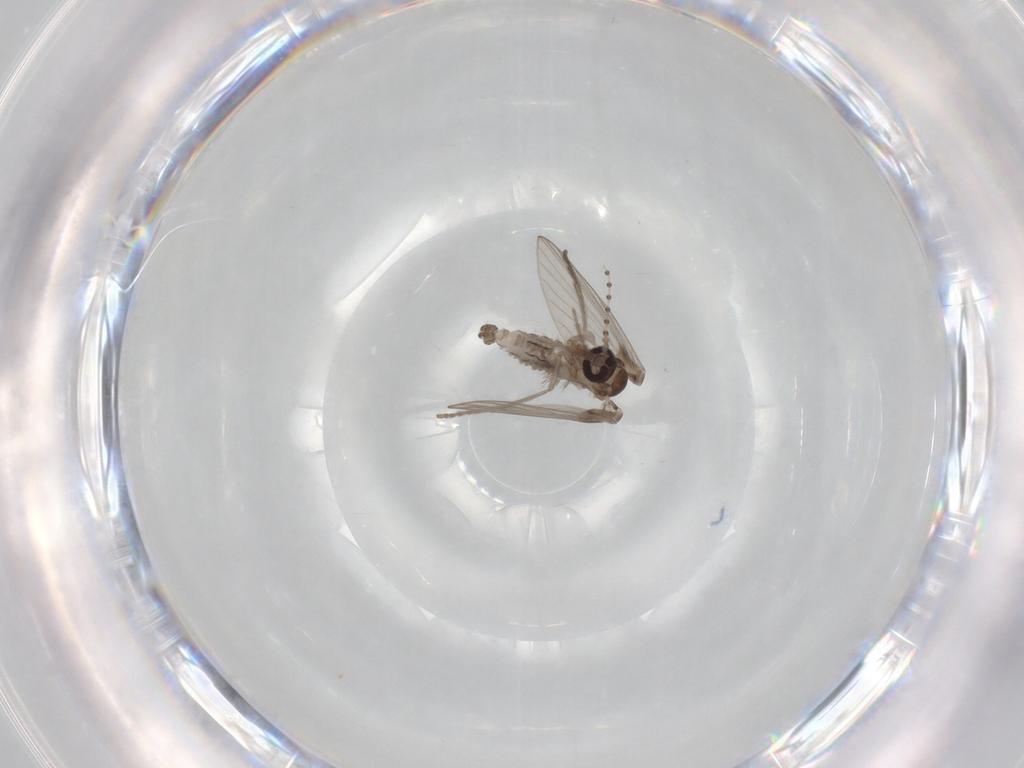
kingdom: Animalia
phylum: Arthropoda
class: Insecta
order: Diptera
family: Psychodidae
